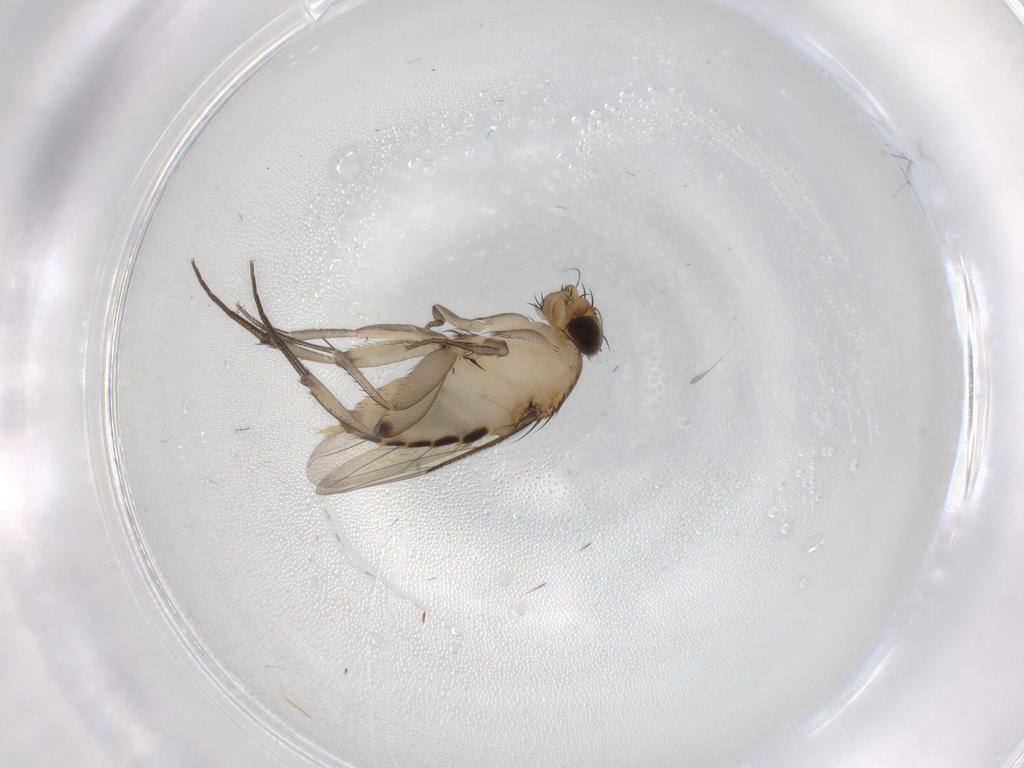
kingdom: Animalia
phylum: Arthropoda
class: Insecta
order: Diptera
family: Phoridae
